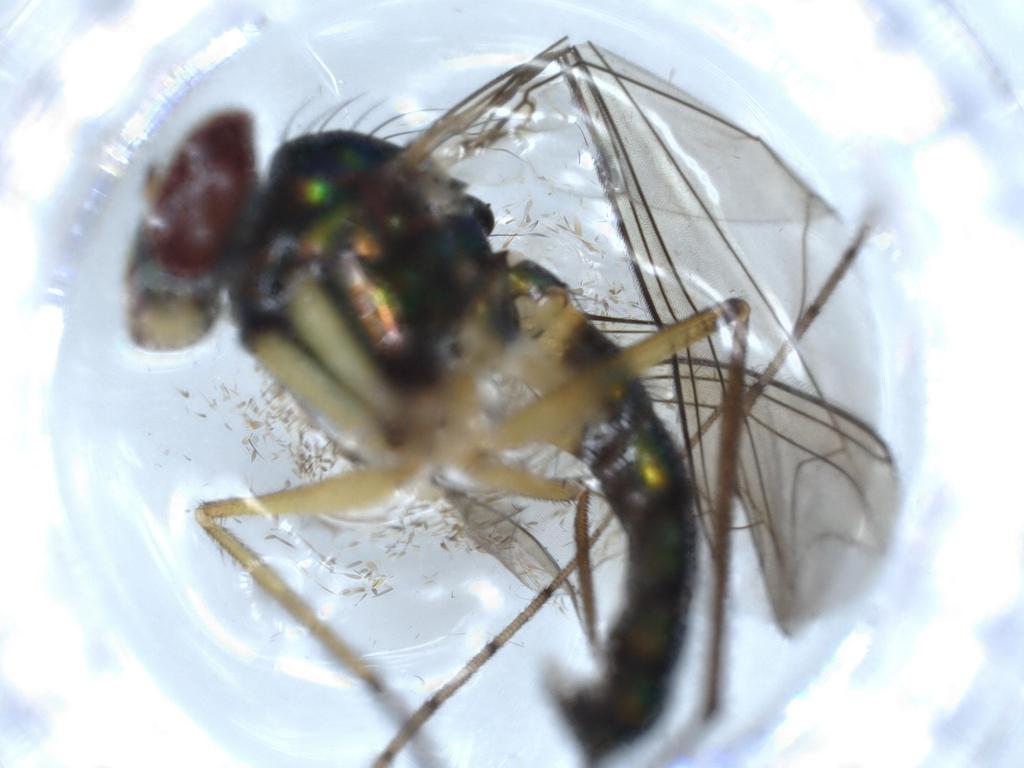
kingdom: Animalia
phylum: Arthropoda
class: Insecta
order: Diptera
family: Dolichopodidae
